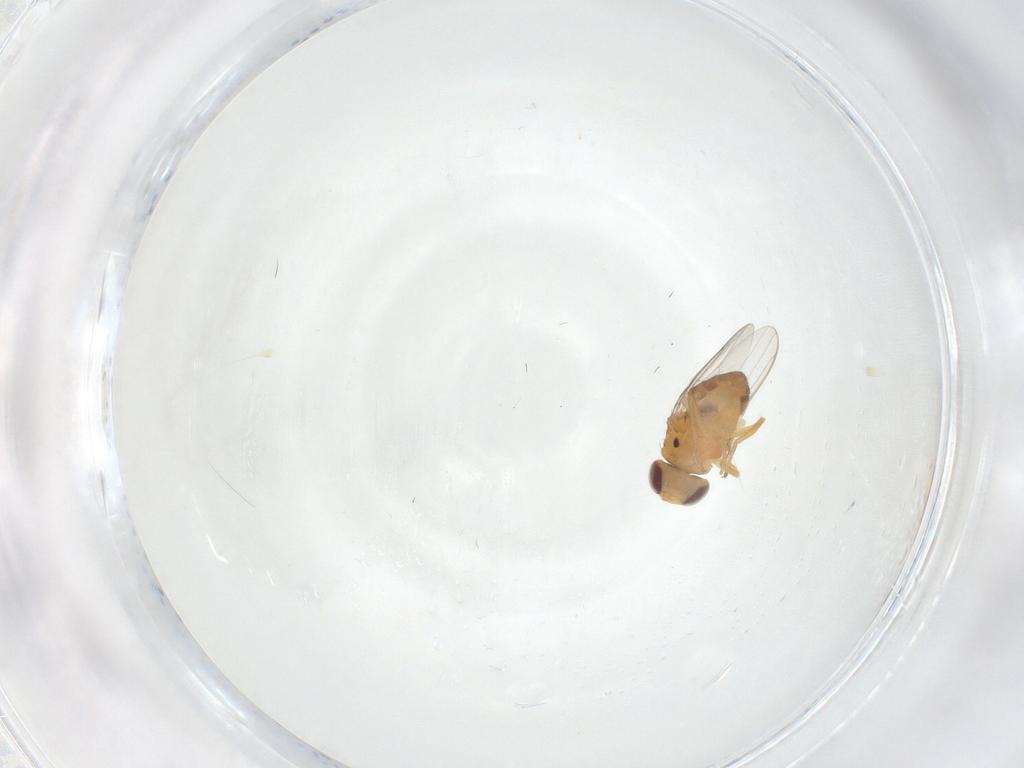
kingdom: Animalia
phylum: Arthropoda
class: Insecta
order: Diptera
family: Chloropidae
